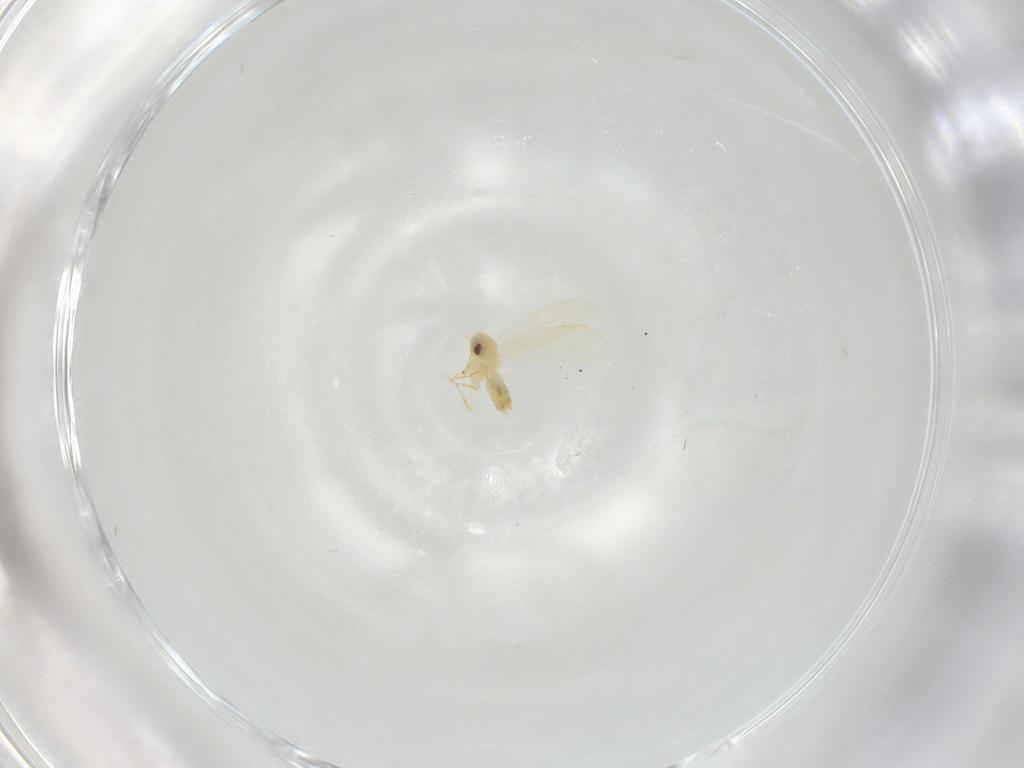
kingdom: Animalia
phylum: Arthropoda
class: Insecta
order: Hemiptera
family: Aleyrodidae
